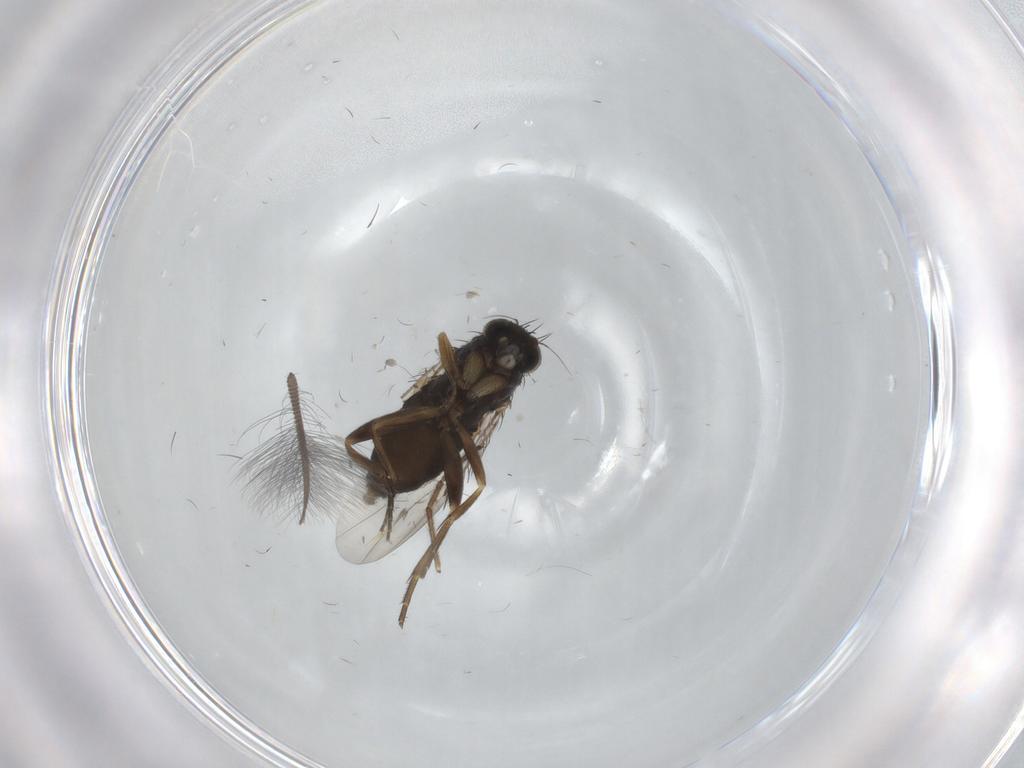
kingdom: Animalia
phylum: Arthropoda
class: Insecta
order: Diptera
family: Phoridae
